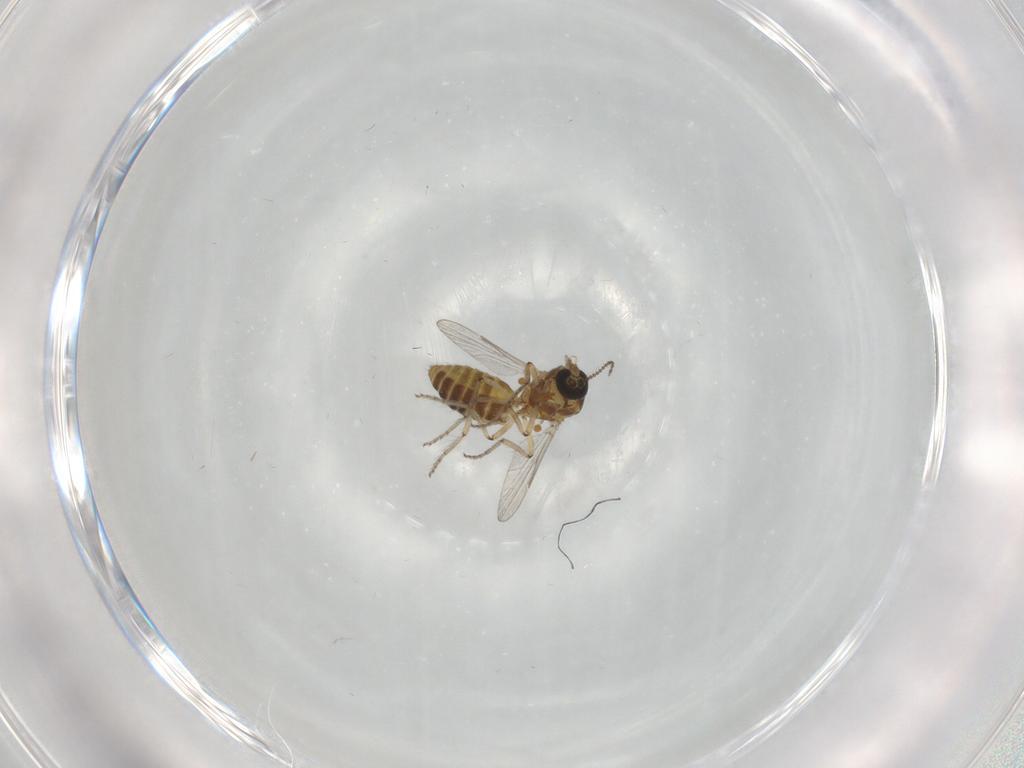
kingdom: Animalia
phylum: Arthropoda
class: Insecta
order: Diptera
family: Ceratopogonidae
